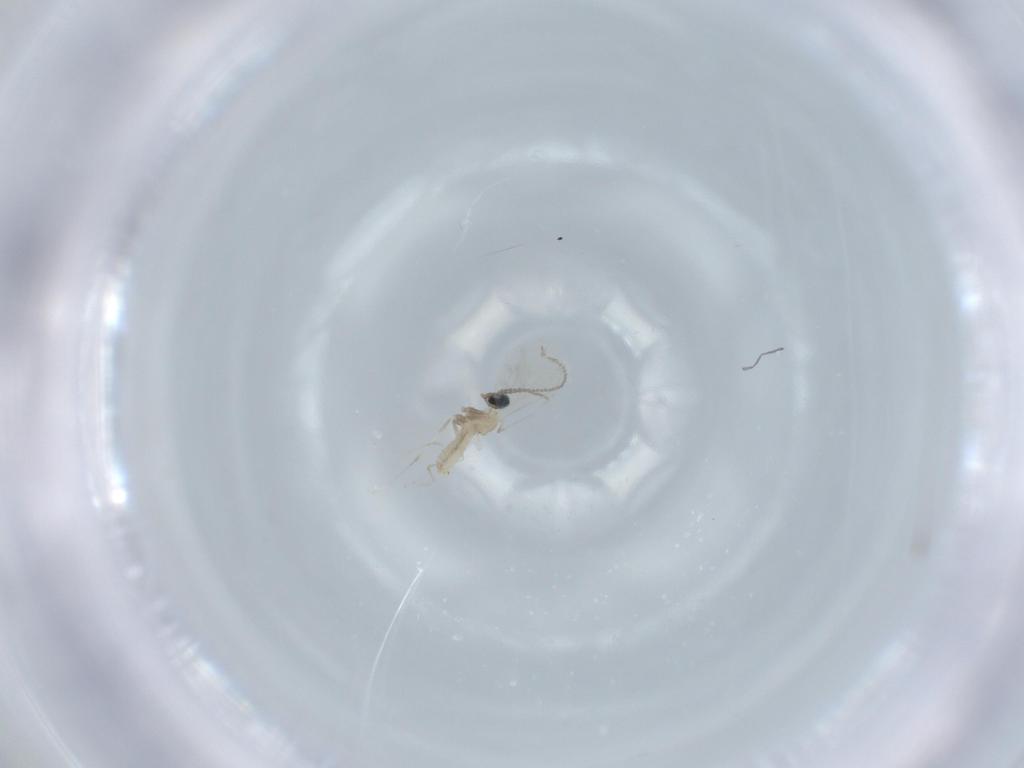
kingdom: Animalia
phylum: Arthropoda
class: Insecta
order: Diptera
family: Cecidomyiidae
